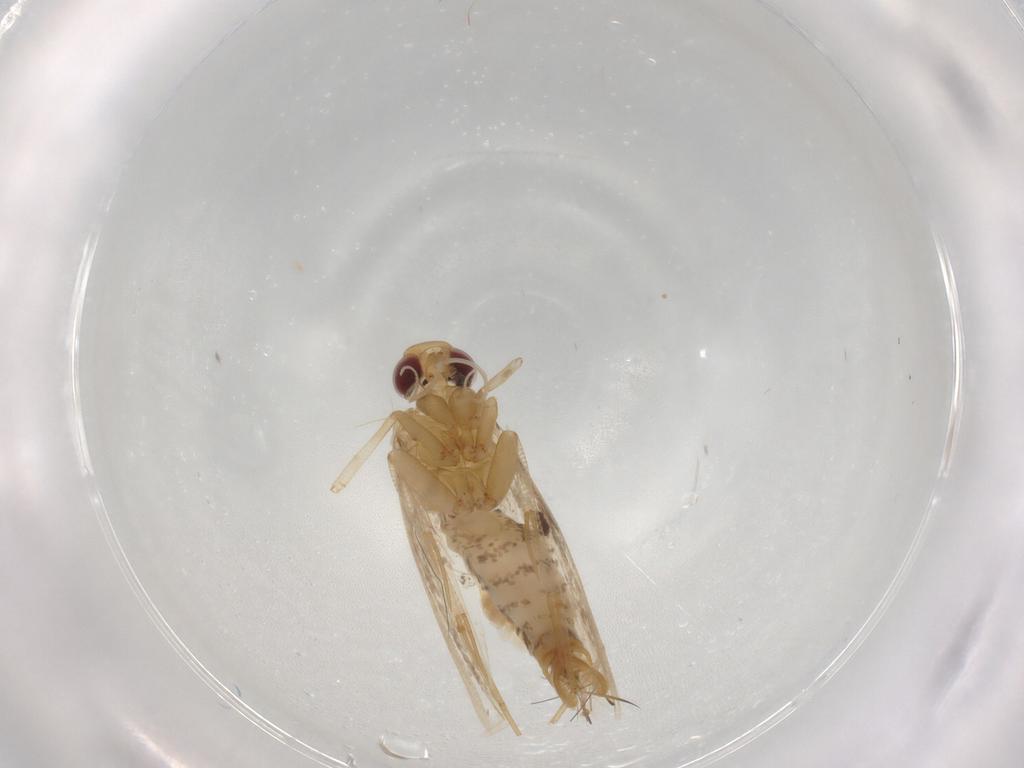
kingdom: Animalia
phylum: Arthropoda
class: Insecta
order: Lepidoptera
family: Cosmopterigidae
